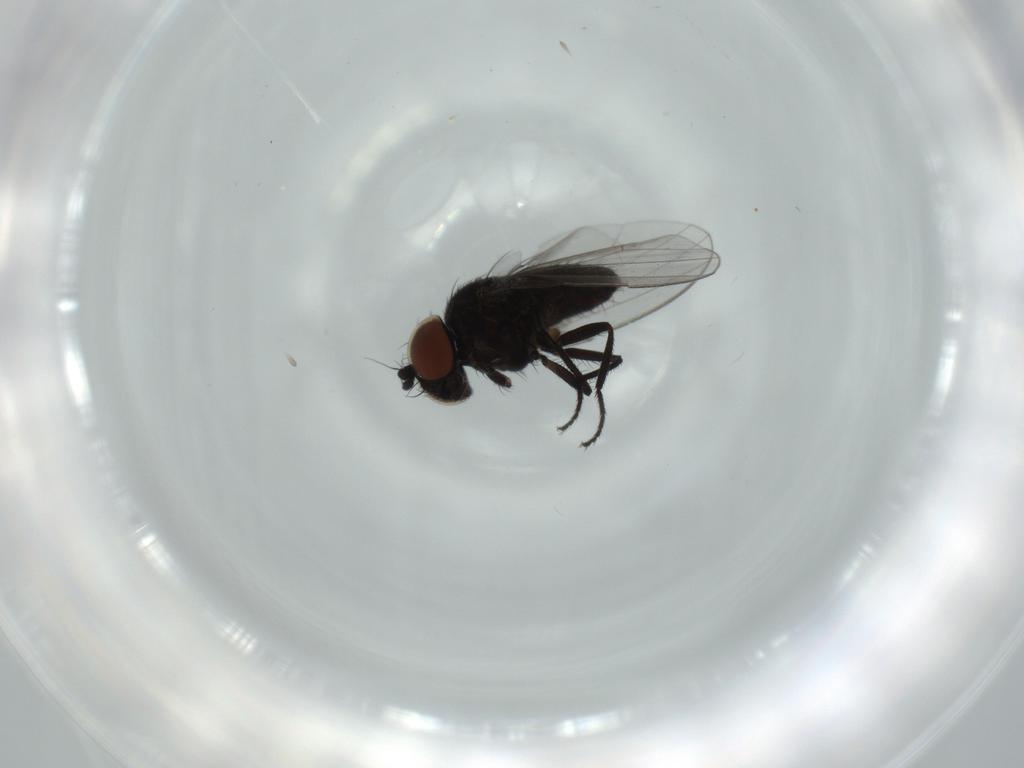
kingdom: Animalia
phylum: Arthropoda
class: Insecta
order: Diptera
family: Milichiidae
